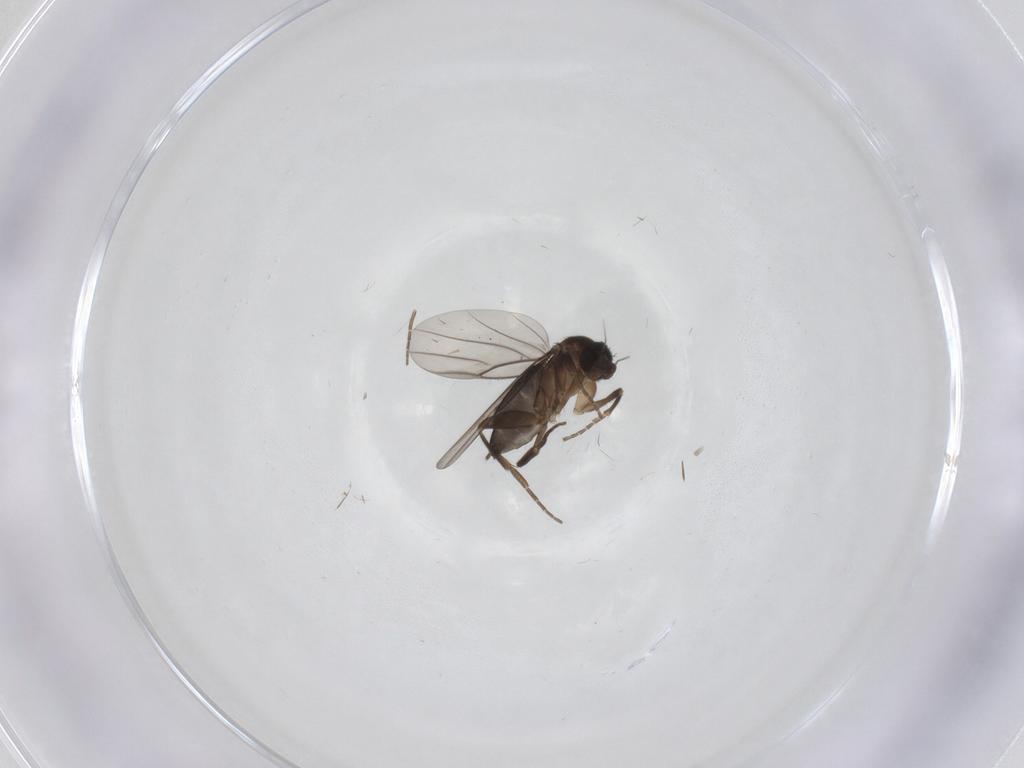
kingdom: Animalia
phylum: Arthropoda
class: Insecta
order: Diptera
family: Phoridae
